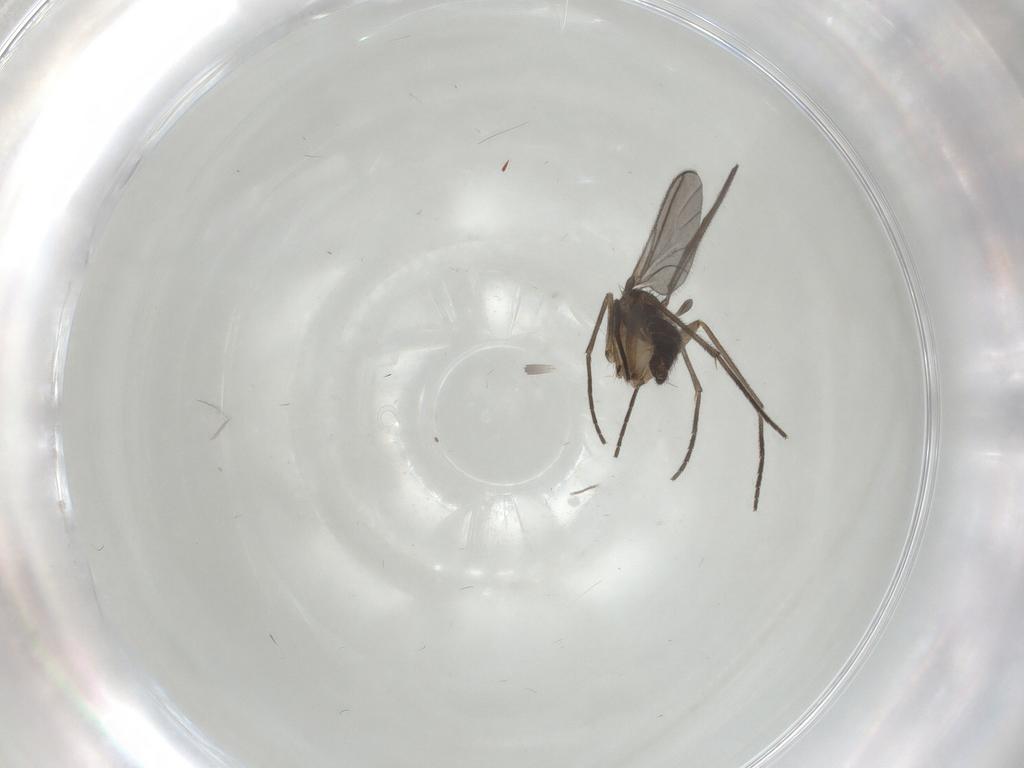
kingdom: Animalia
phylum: Arthropoda
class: Insecta
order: Diptera
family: Sciaridae
